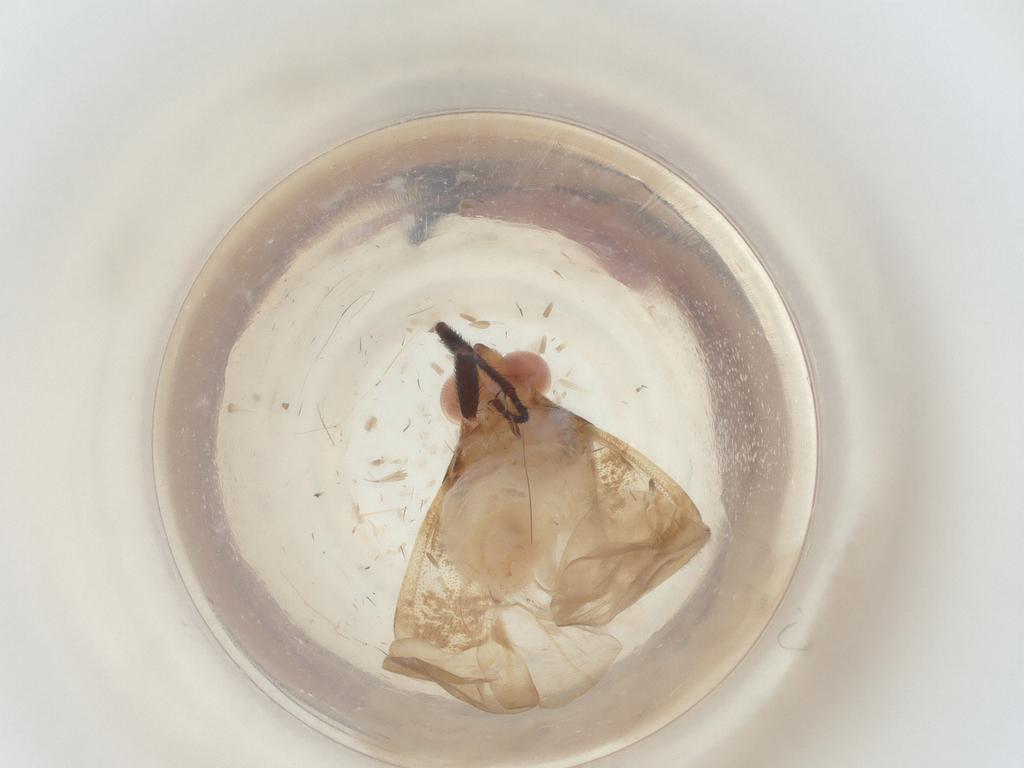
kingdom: Animalia
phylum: Arthropoda
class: Insecta
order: Hemiptera
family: Miridae
